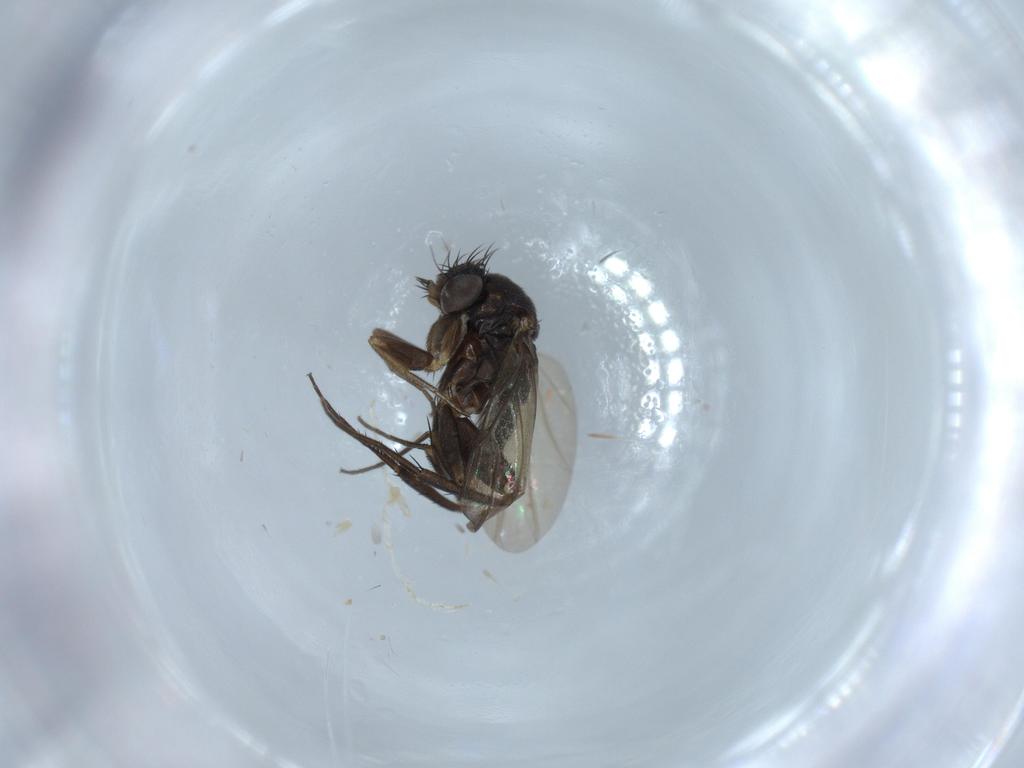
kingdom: Animalia
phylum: Arthropoda
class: Insecta
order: Diptera
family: Phoridae
